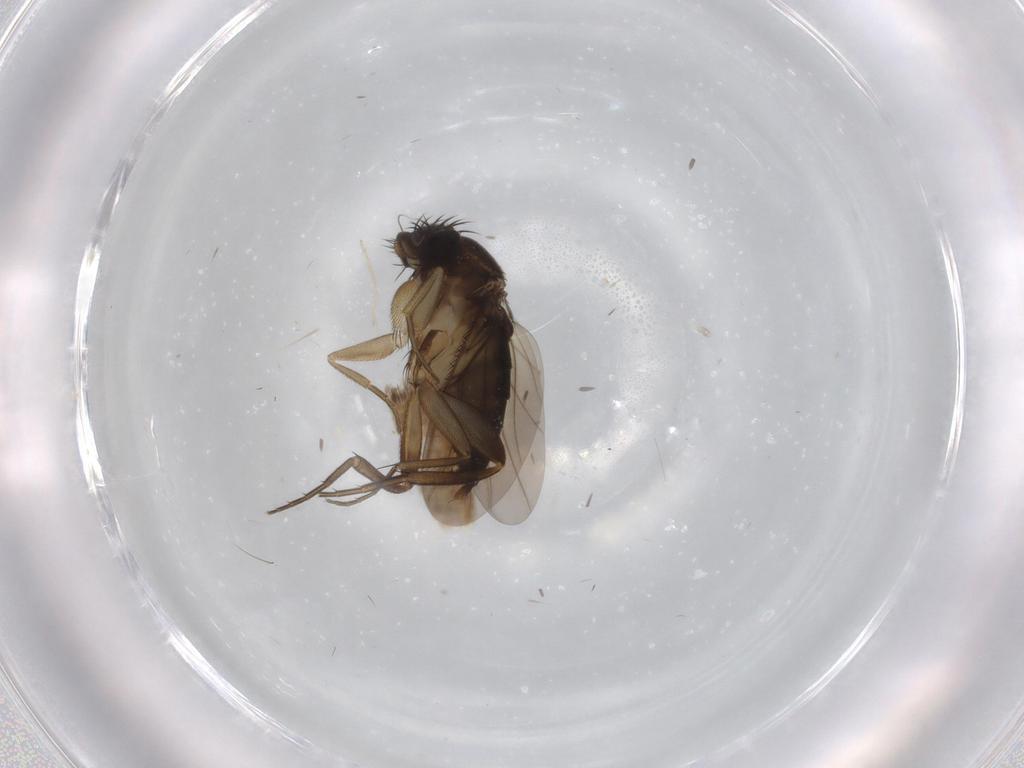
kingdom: Animalia
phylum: Arthropoda
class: Insecta
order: Diptera
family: Phoridae
